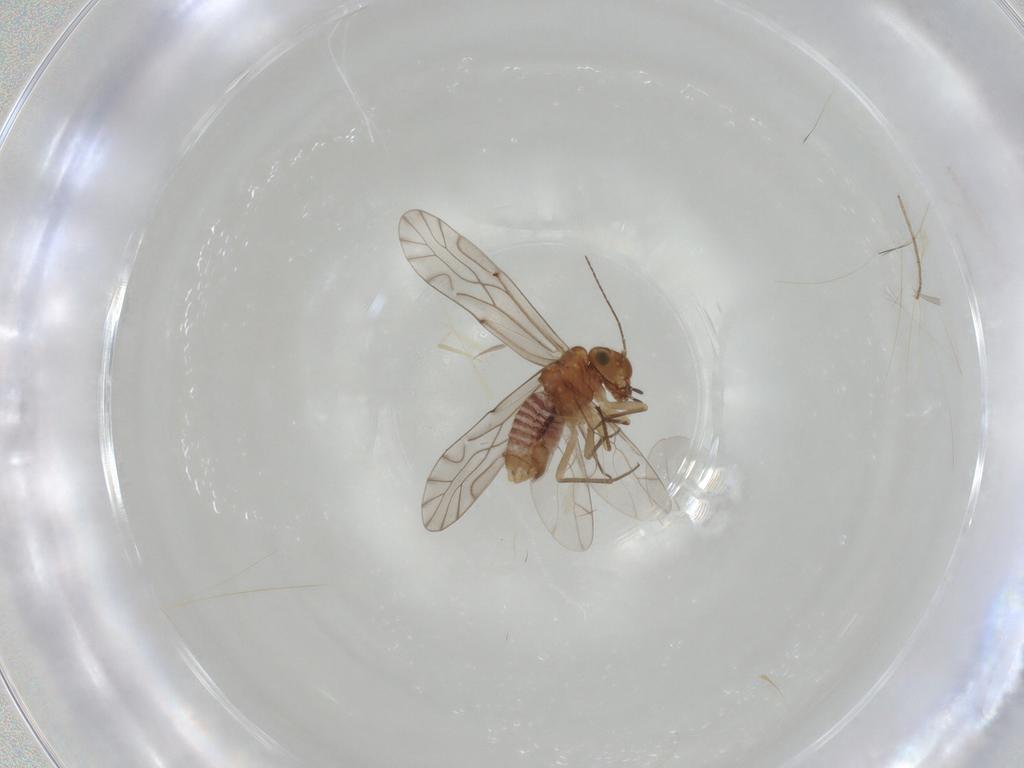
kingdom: Animalia
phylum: Arthropoda
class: Insecta
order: Psocodea
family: Lachesillidae
